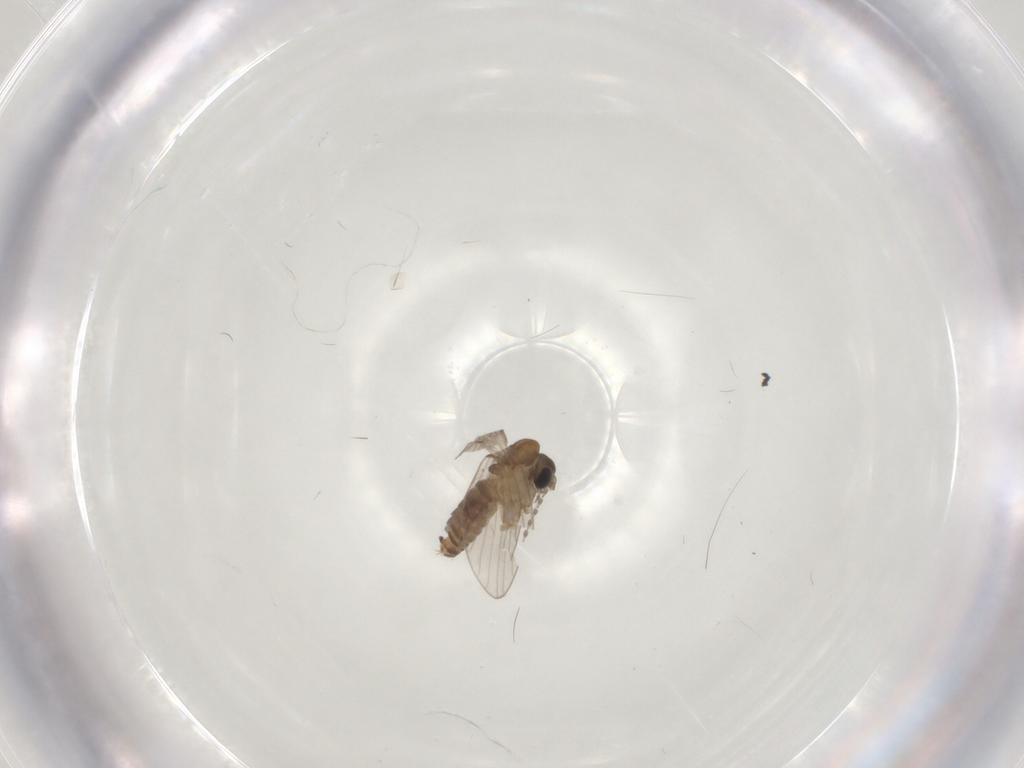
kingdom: Animalia
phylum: Arthropoda
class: Insecta
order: Diptera
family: Psychodidae
